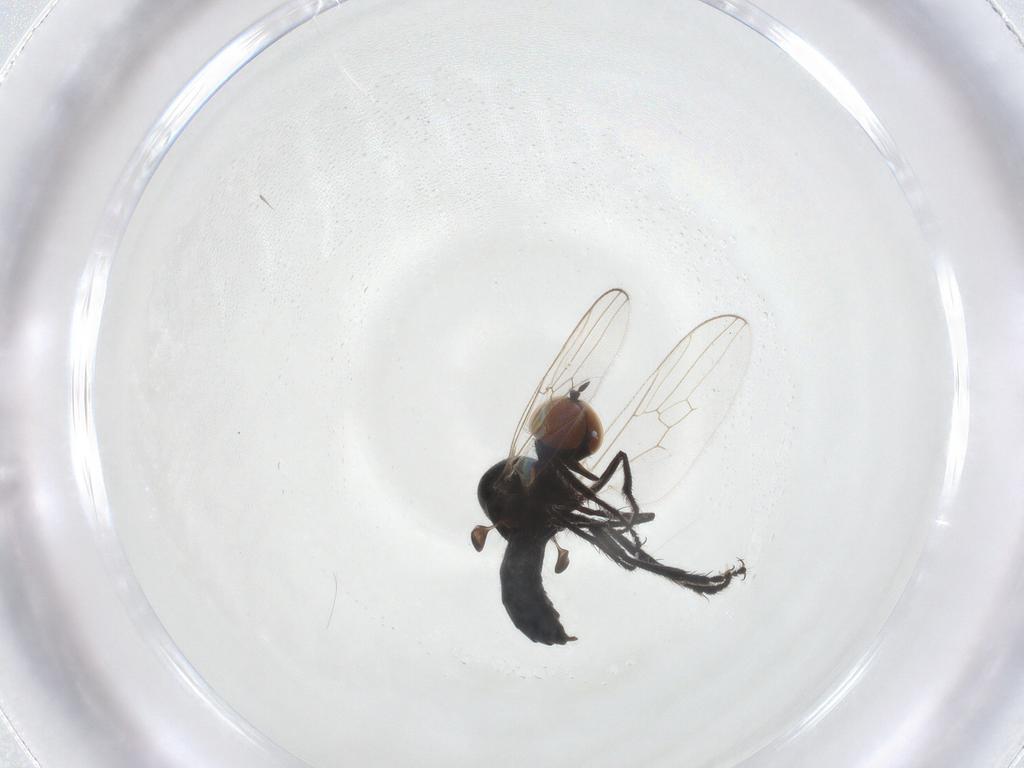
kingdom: Animalia
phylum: Arthropoda
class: Insecta
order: Diptera
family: Hybotidae
